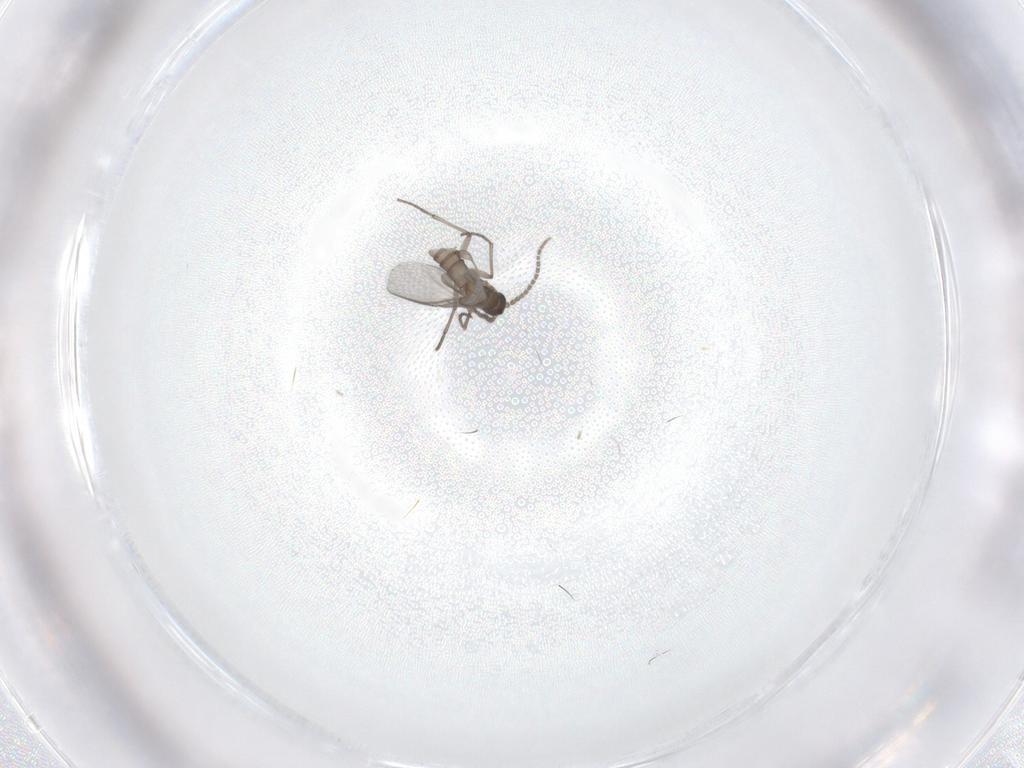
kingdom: Animalia
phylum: Arthropoda
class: Insecta
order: Diptera
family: Sciaridae
